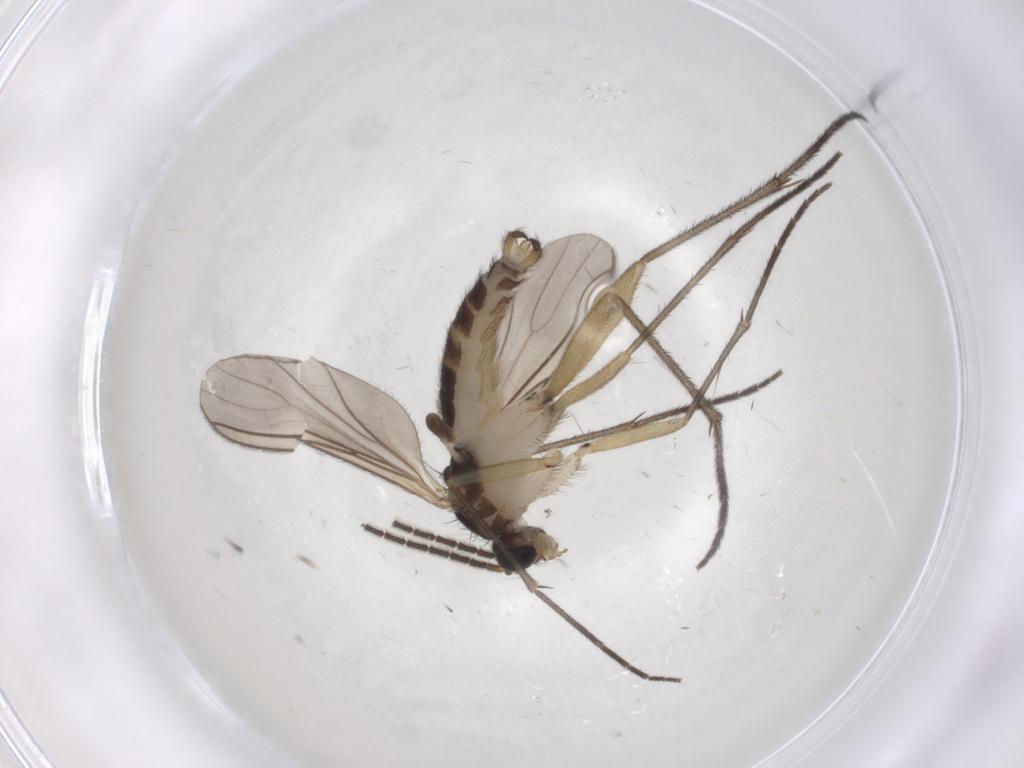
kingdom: Animalia
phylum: Arthropoda
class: Insecta
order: Diptera
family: Sciaridae
